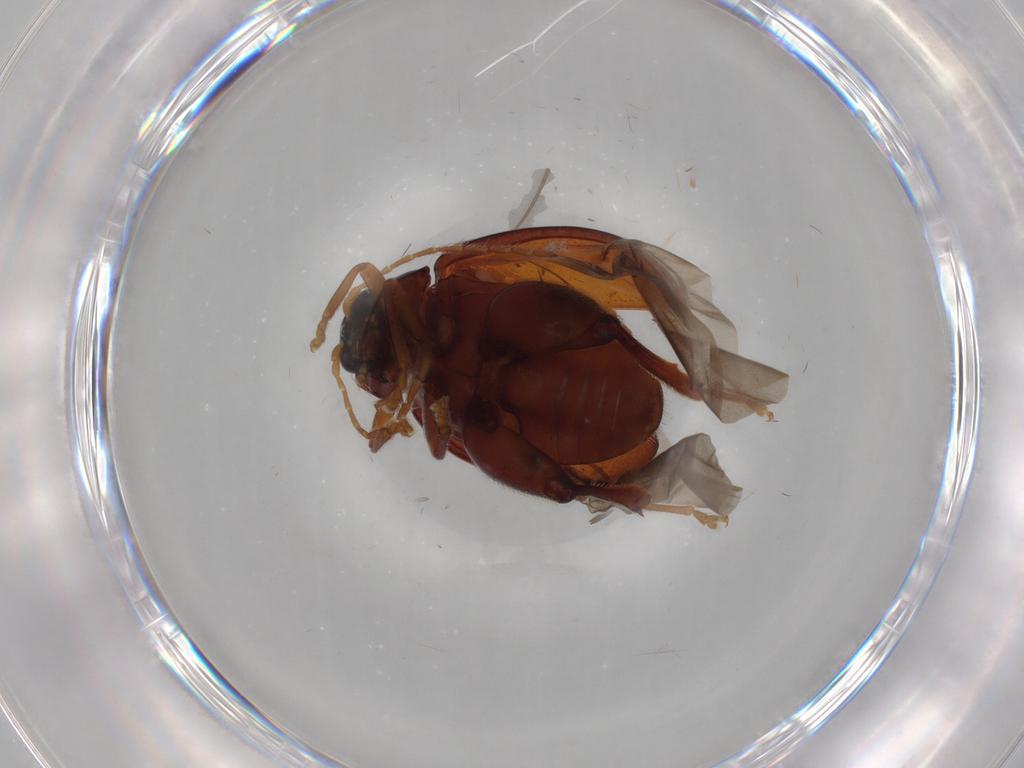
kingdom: Animalia
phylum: Arthropoda
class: Insecta
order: Coleoptera
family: Chrysomelidae
